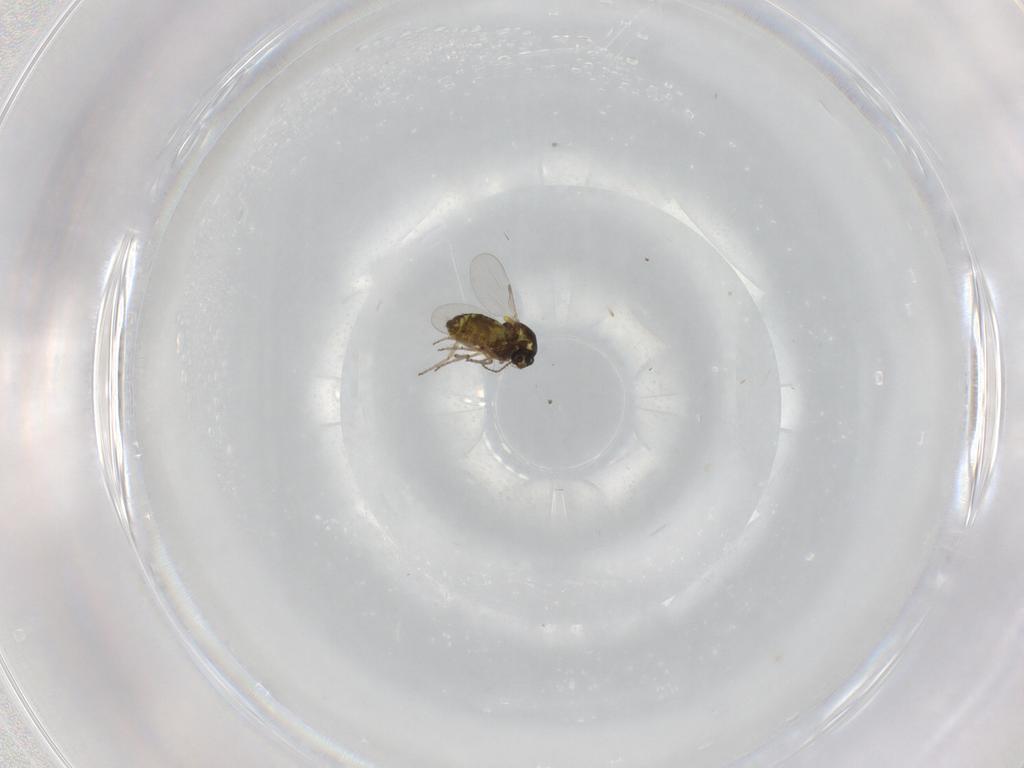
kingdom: Animalia
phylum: Arthropoda
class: Insecta
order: Diptera
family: Ceratopogonidae
